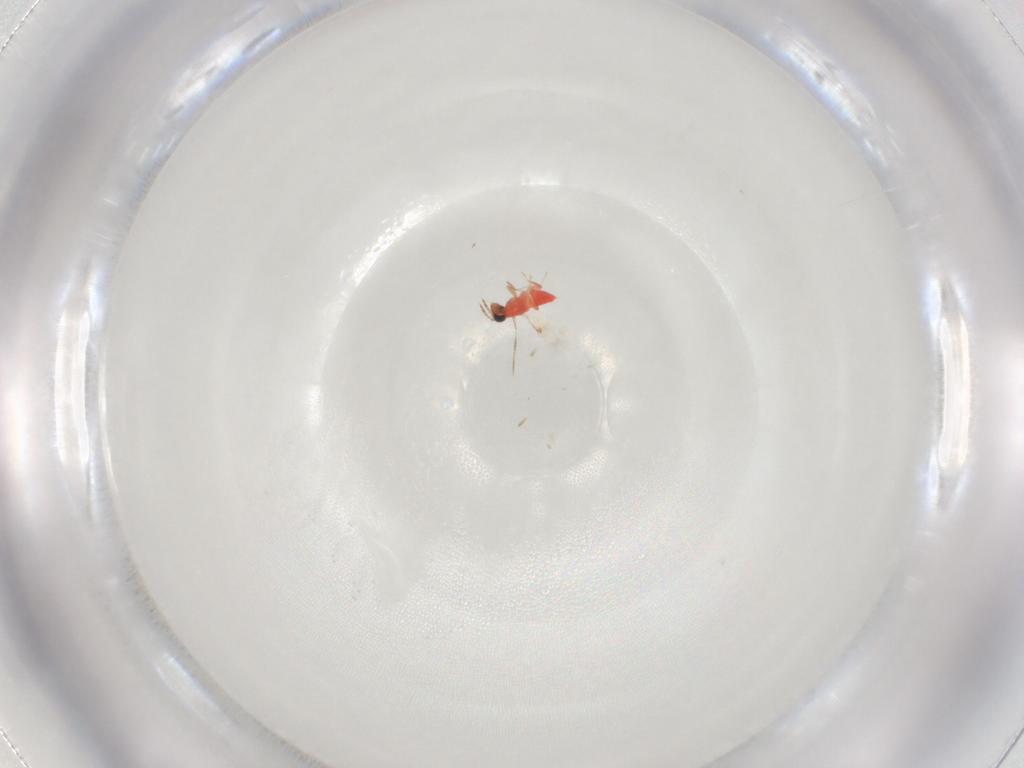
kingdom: Animalia
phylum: Arthropoda
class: Insecta
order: Hymenoptera
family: Trichogrammatidae
